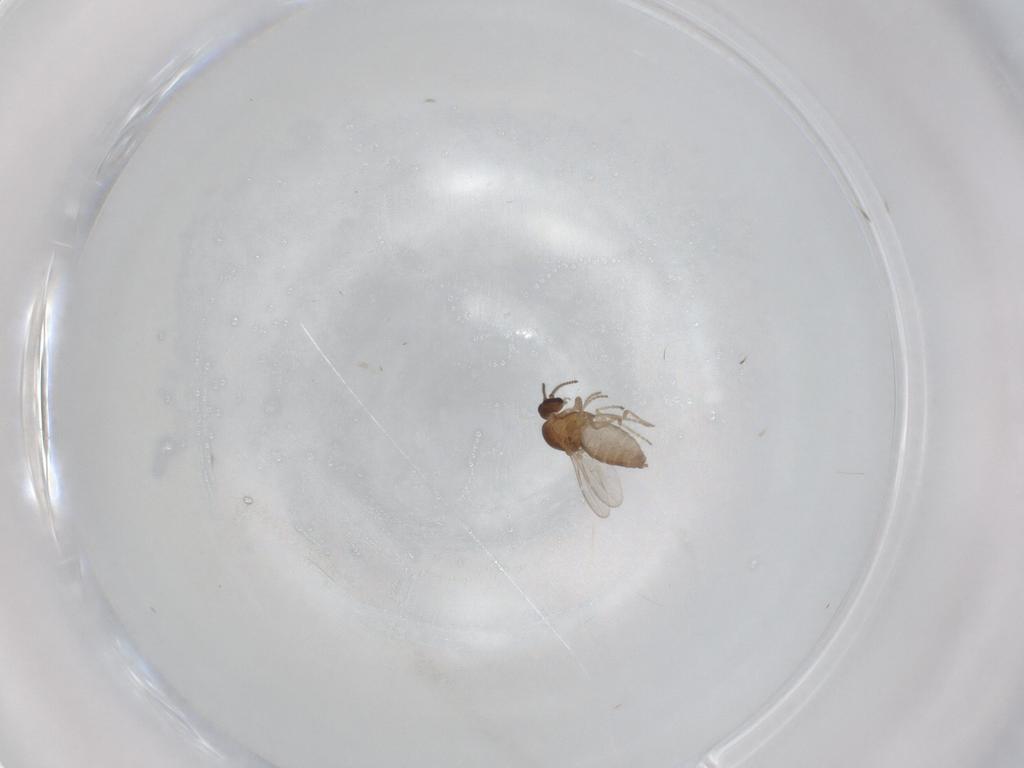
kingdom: Animalia
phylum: Arthropoda
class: Insecta
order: Diptera
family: Ceratopogonidae
